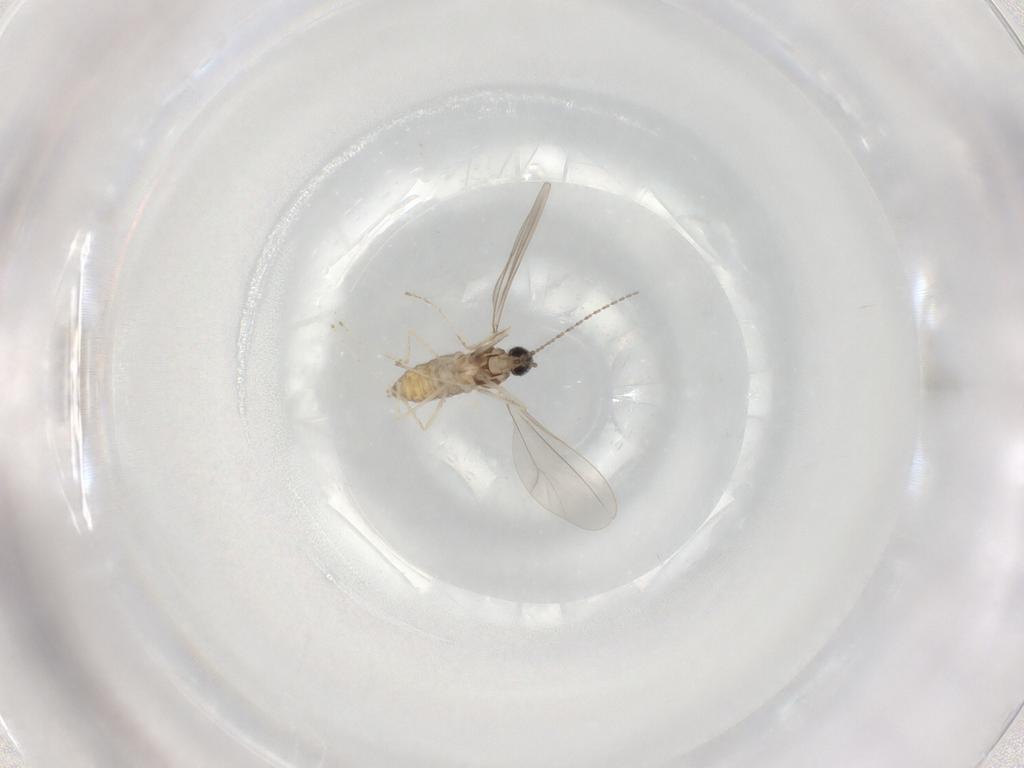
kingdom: Animalia
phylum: Arthropoda
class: Insecta
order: Diptera
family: Cecidomyiidae
